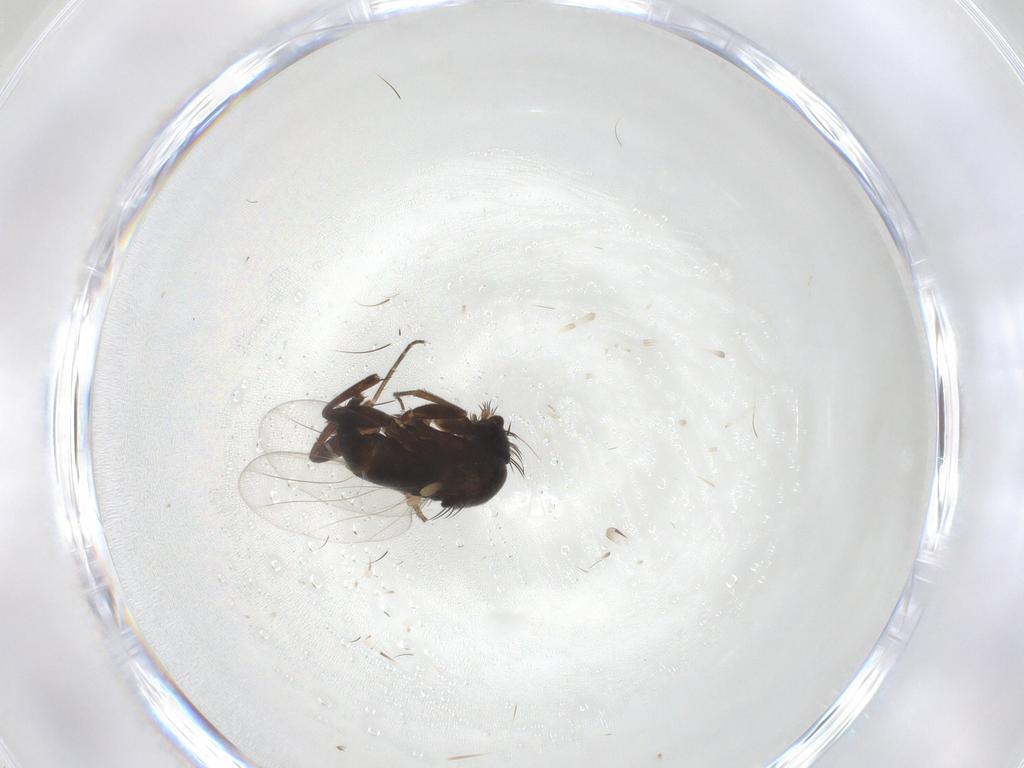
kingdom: Animalia
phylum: Arthropoda
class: Insecta
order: Diptera
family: Phoridae
